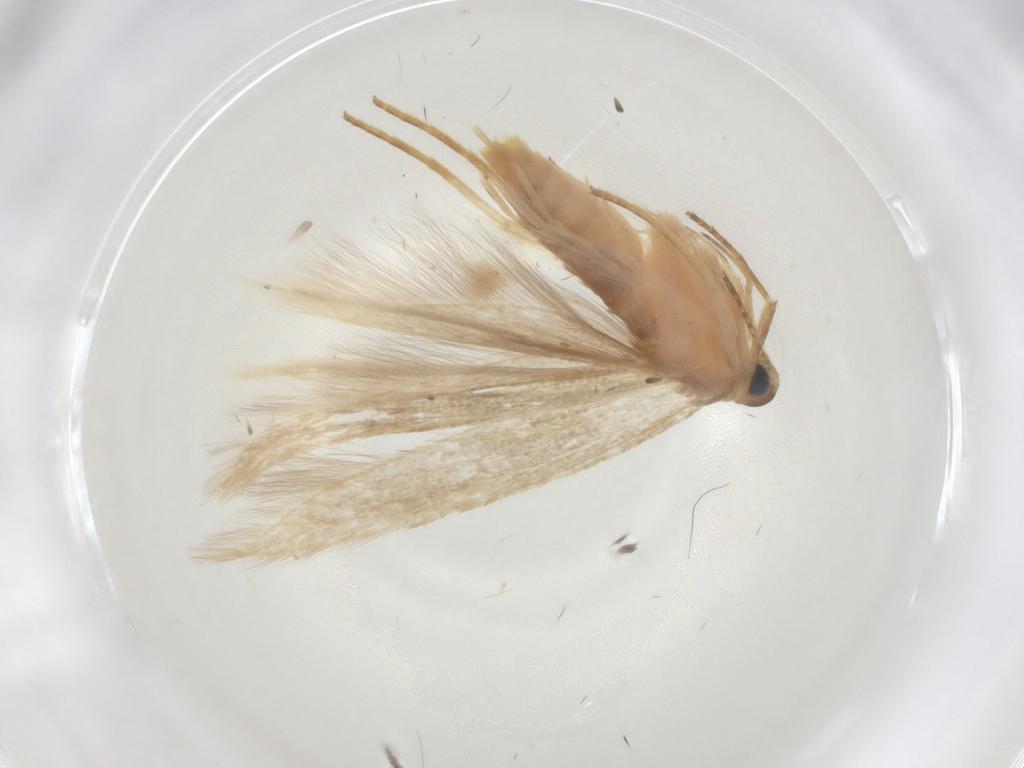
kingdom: Animalia
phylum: Arthropoda
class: Insecta
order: Lepidoptera
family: Lecithoceridae
